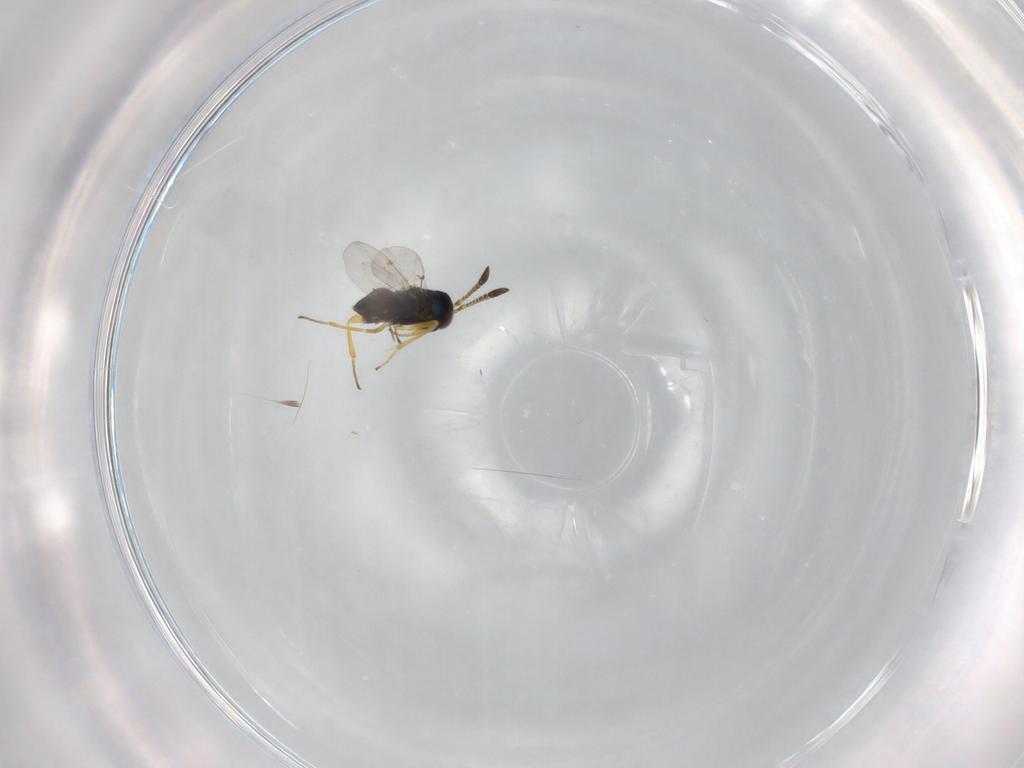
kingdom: Animalia
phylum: Arthropoda
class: Insecta
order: Hymenoptera
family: Encyrtidae
